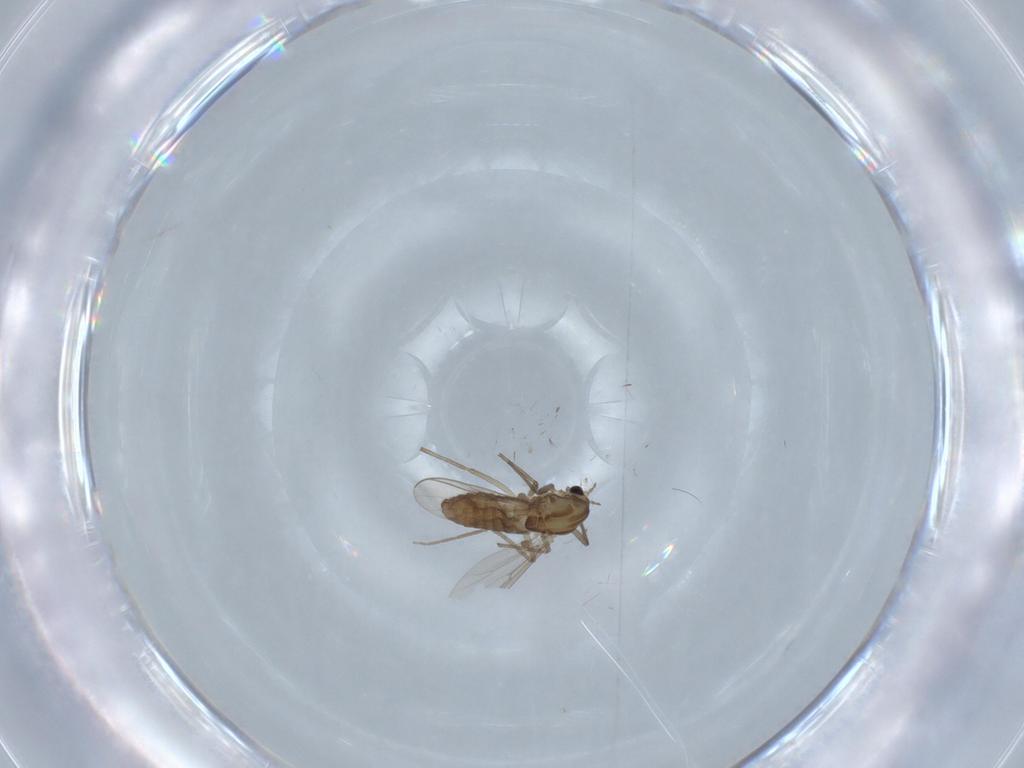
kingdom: Animalia
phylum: Arthropoda
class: Insecta
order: Diptera
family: Chironomidae
